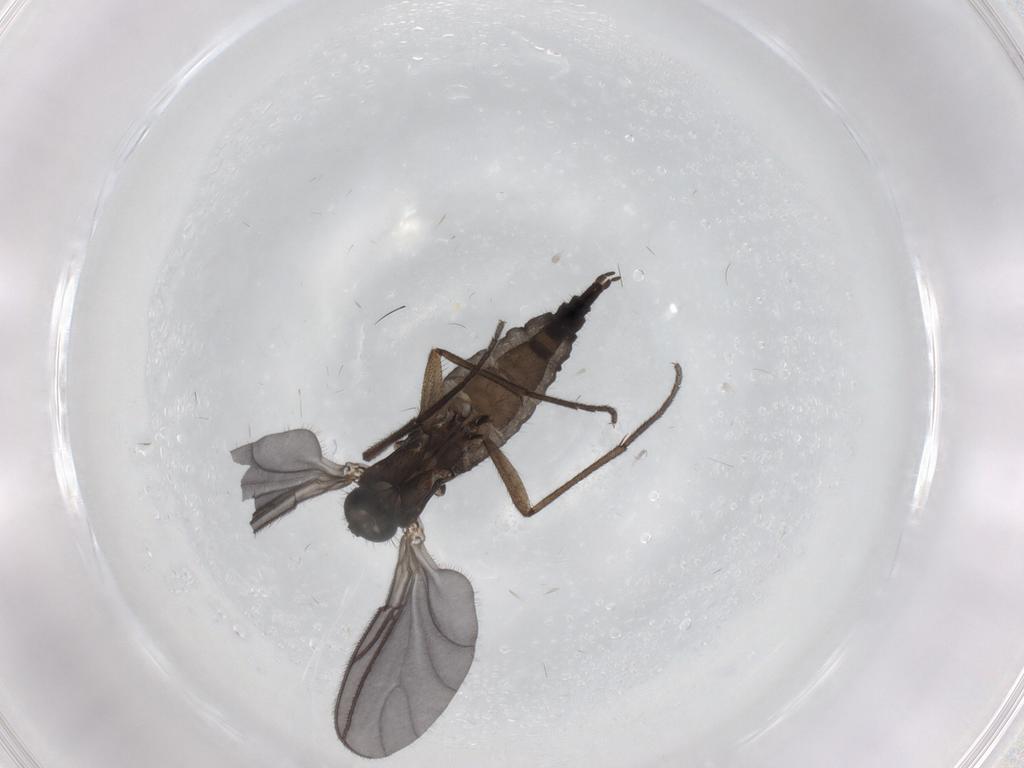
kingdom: Animalia
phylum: Arthropoda
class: Insecta
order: Diptera
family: Sciaridae
